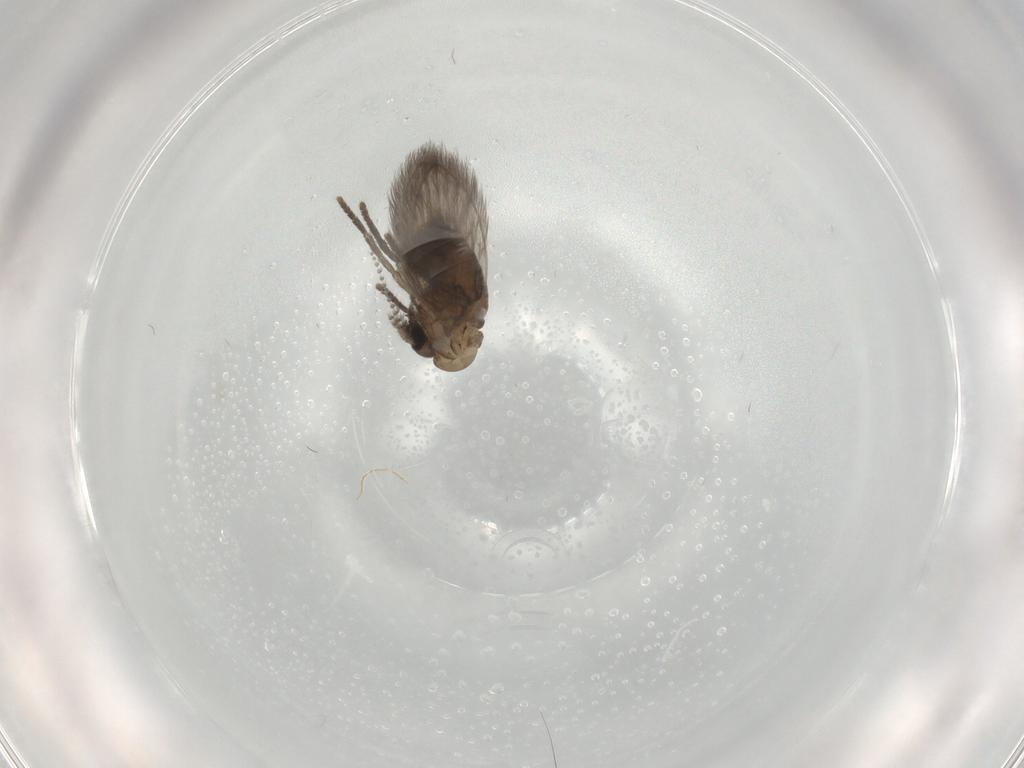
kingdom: Animalia
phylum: Arthropoda
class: Insecta
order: Diptera
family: Psychodidae
